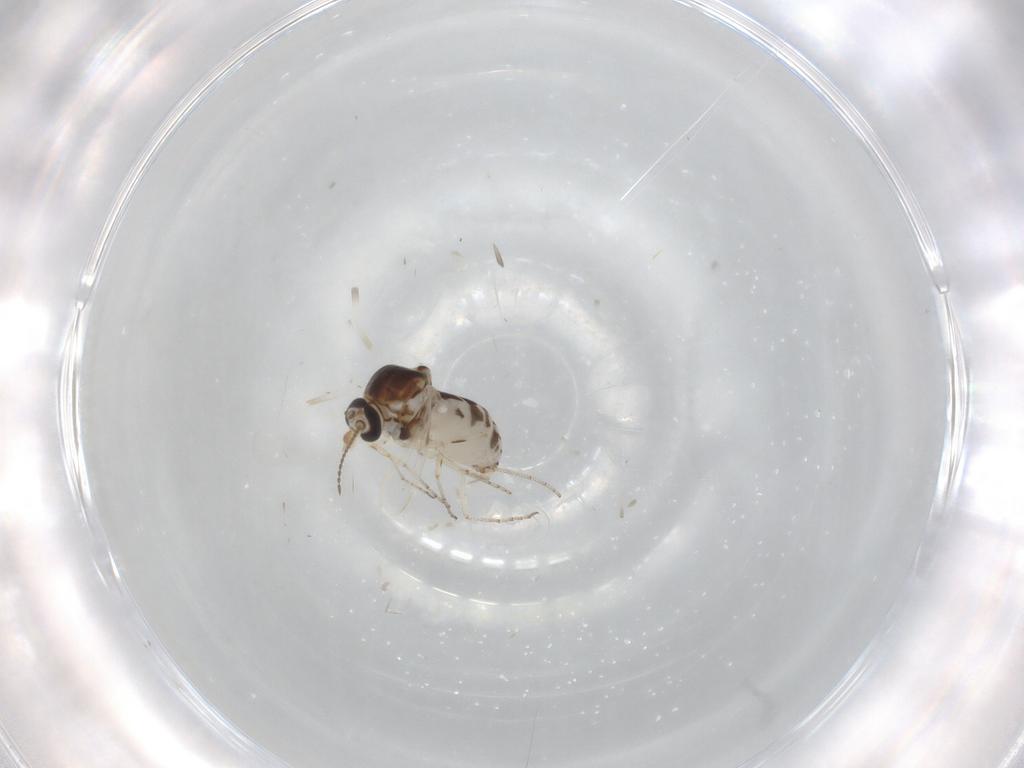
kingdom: Animalia
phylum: Arthropoda
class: Insecta
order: Diptera
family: Ceratopogonidae
